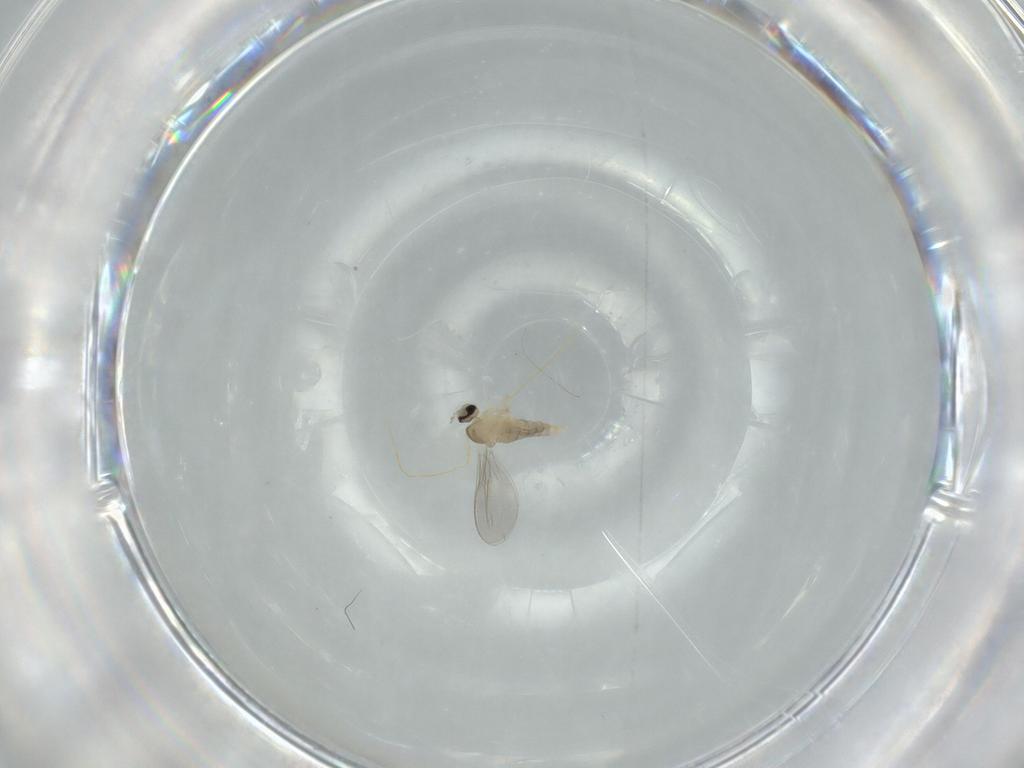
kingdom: Animalia
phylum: Arthropoda
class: Insecta
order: Diptera
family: Cecidomyiidae
